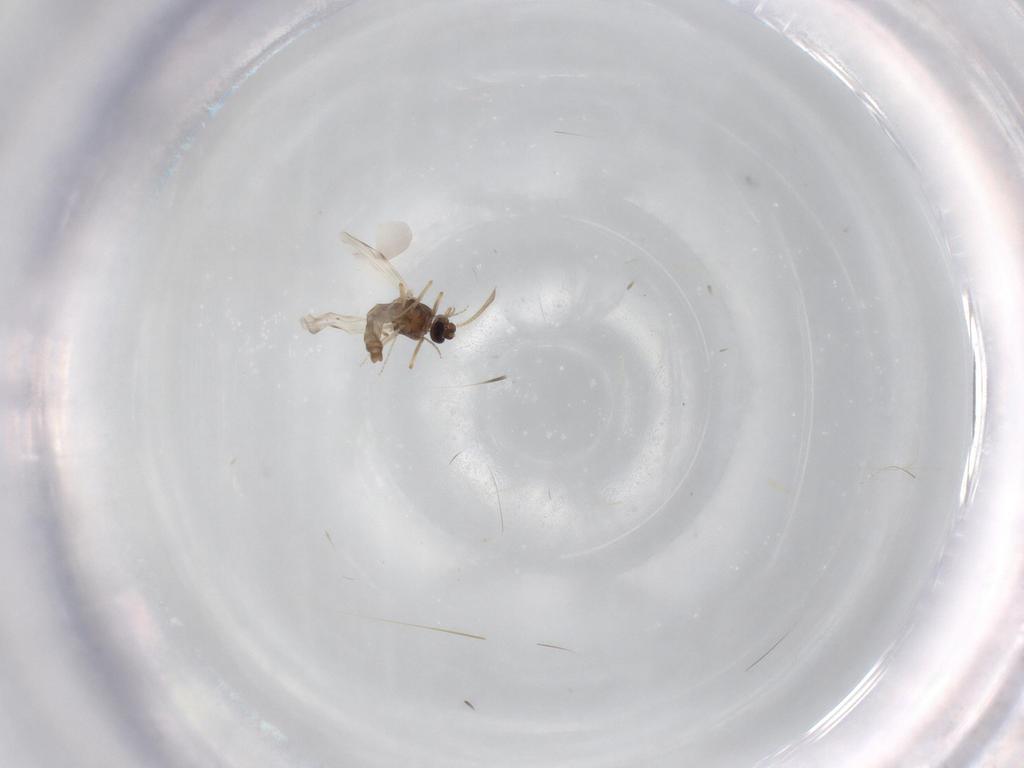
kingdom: Animalia
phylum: Arthropoda
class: Insecta
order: Diptera
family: Ceratopogonidae
